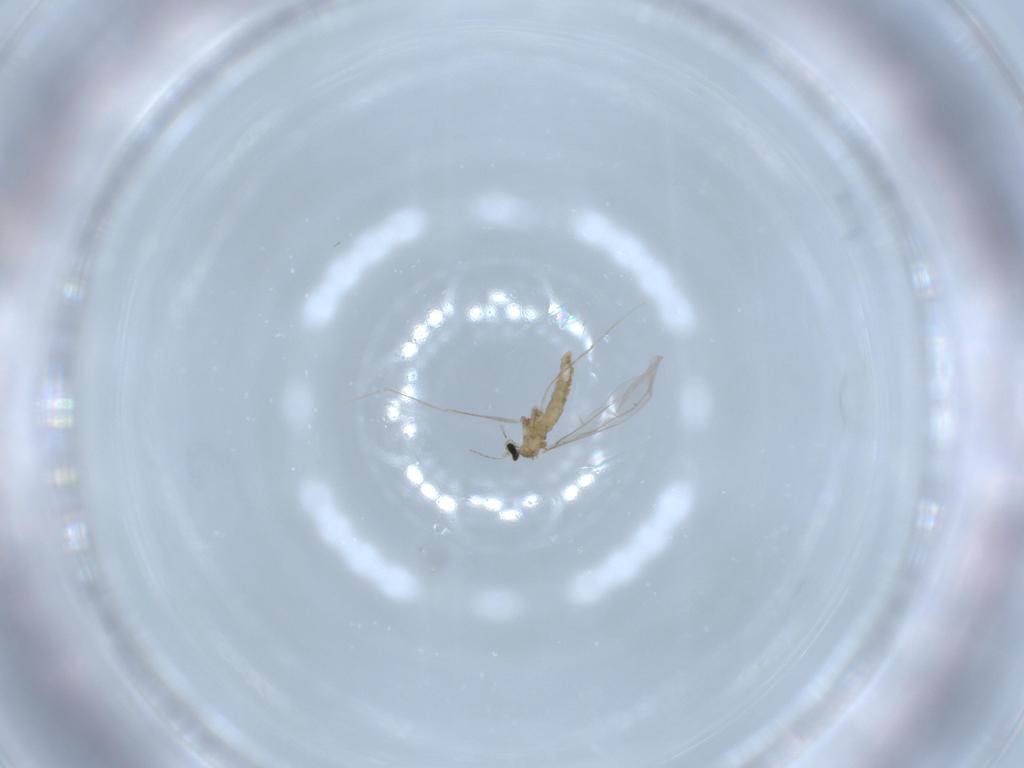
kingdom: Animalia
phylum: Arthropoda
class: Insecta
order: Diptera
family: Cecidomyiidae
